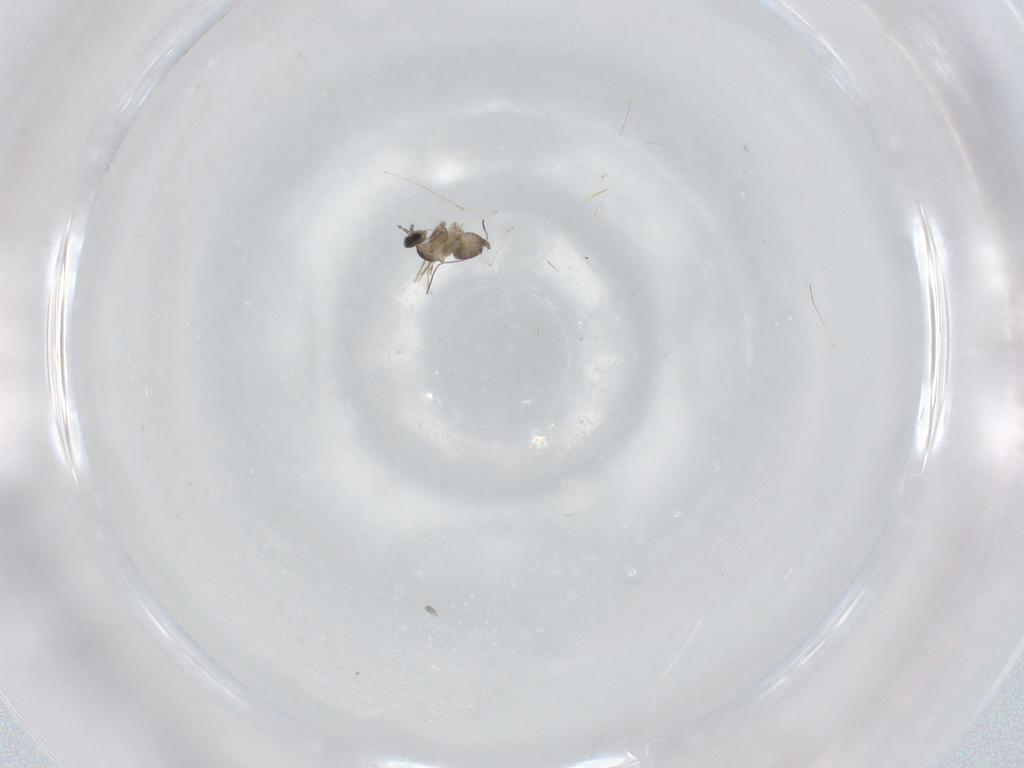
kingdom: Animalia
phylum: Arthropoda
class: Insecta
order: Diptera
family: Cecidomyiidae
